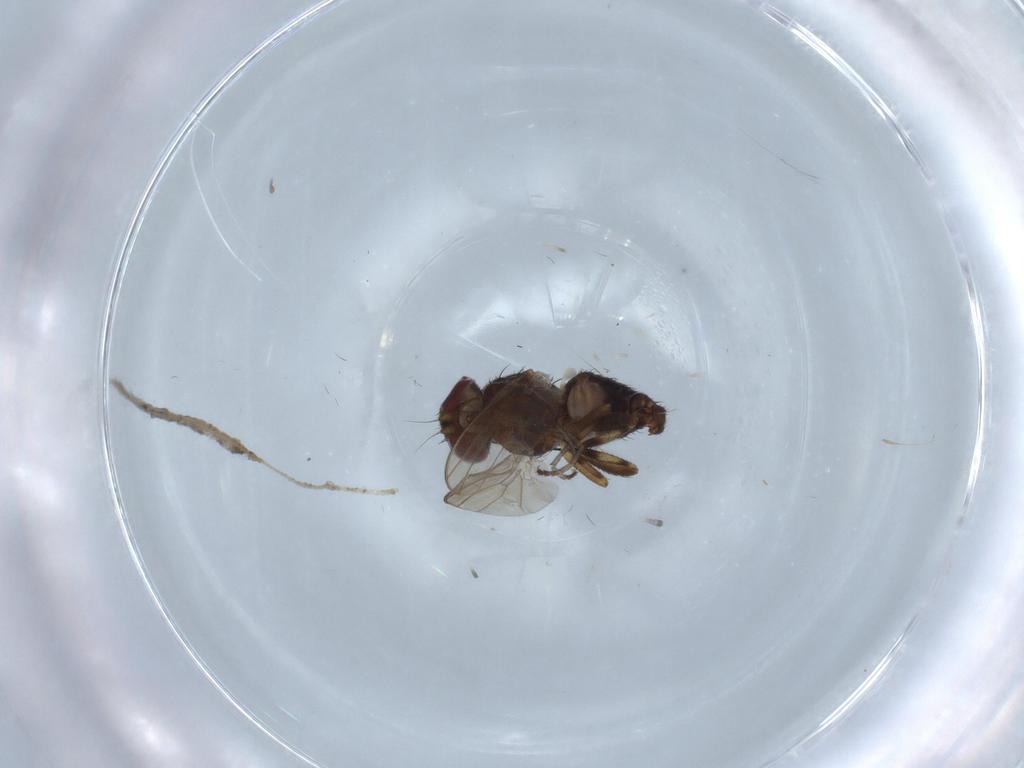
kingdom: Animalia
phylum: Arthropoda
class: Insecta
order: Diptera
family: Heleomyzidae
